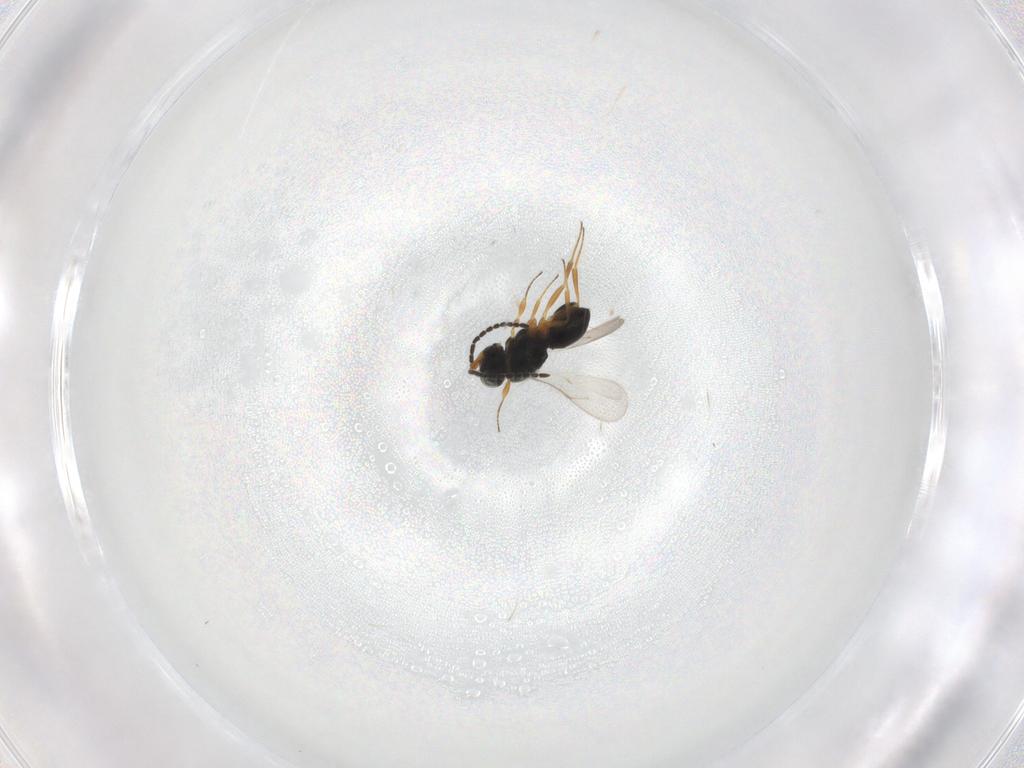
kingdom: Animalia
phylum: Arthropoda
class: Insecta
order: Hymenoptera
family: Scelionidae
